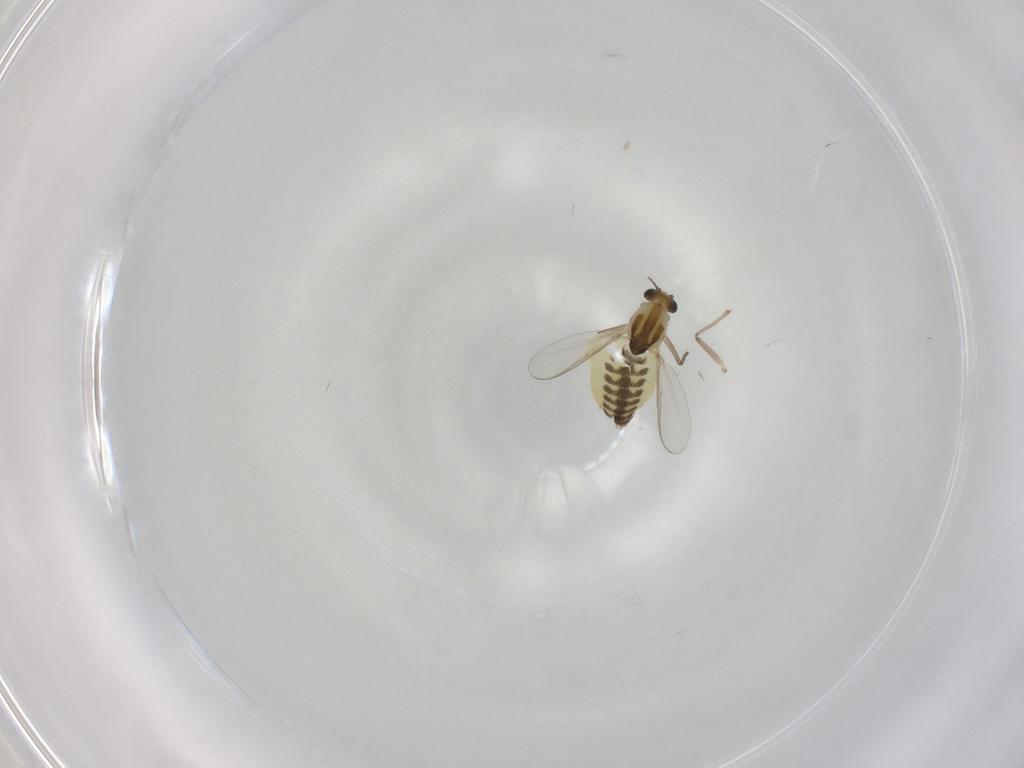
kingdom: Animalia
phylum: Arthropoda
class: Insecta
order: Diptera
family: Chironomidae
